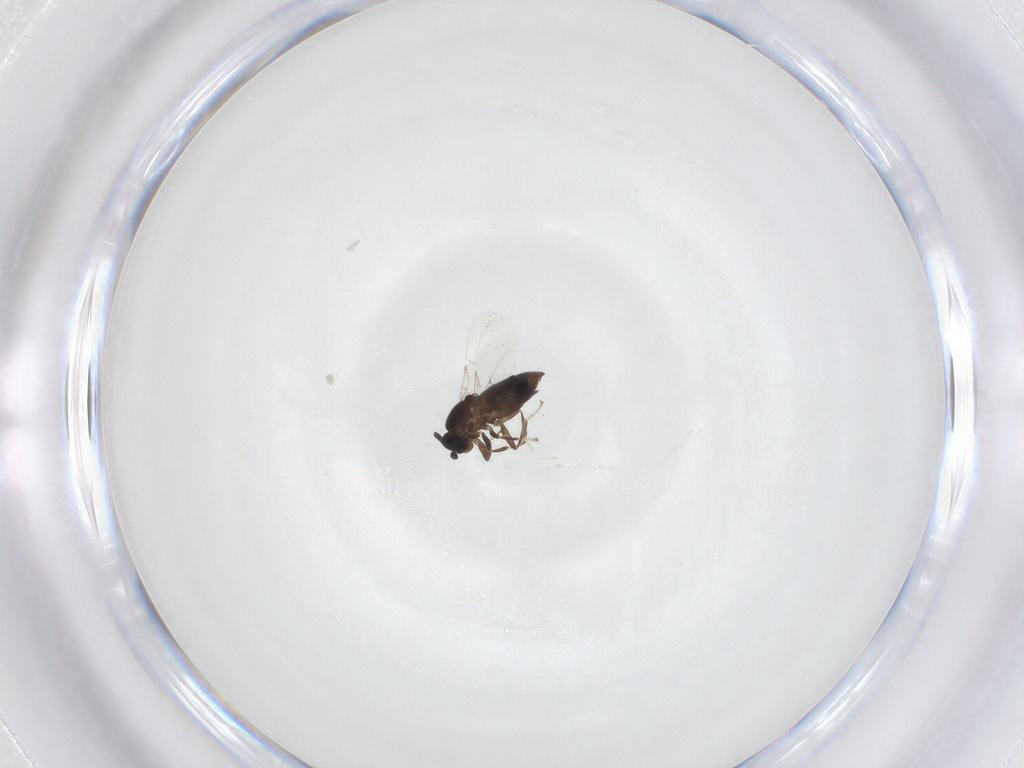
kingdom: Animalia
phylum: Arthropoda
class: Insecta
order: Diptera
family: Scatopsidae
